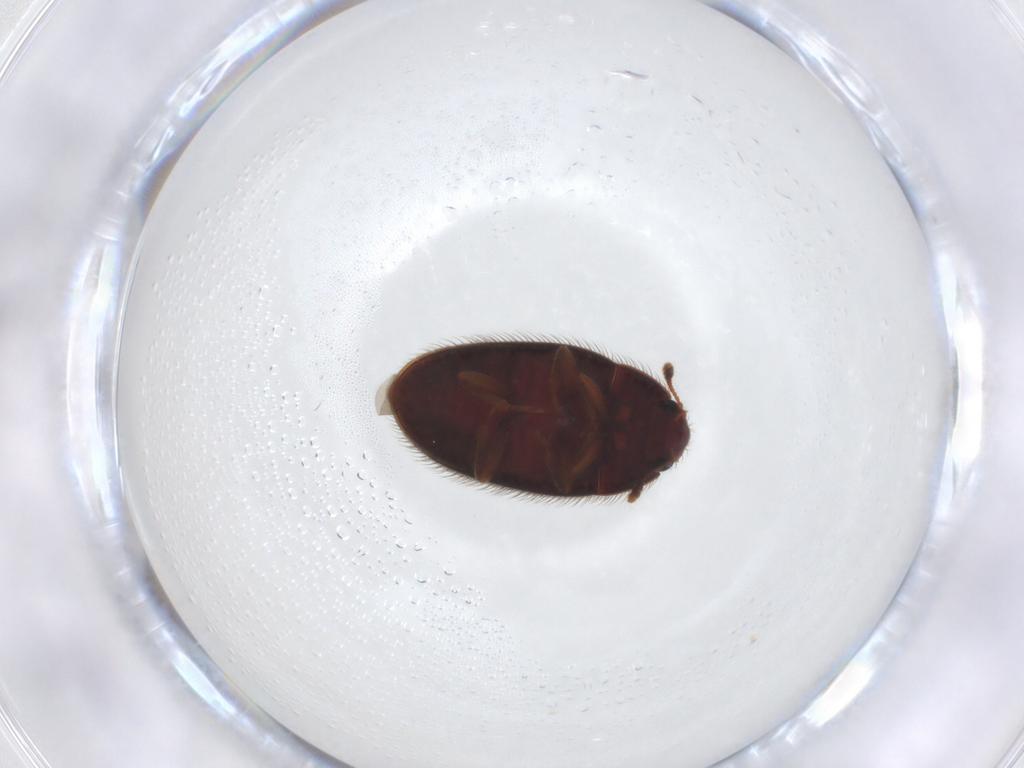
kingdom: Animalia
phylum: Arthropoda
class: Insecta
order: Coleoptera
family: Biphyllidae
